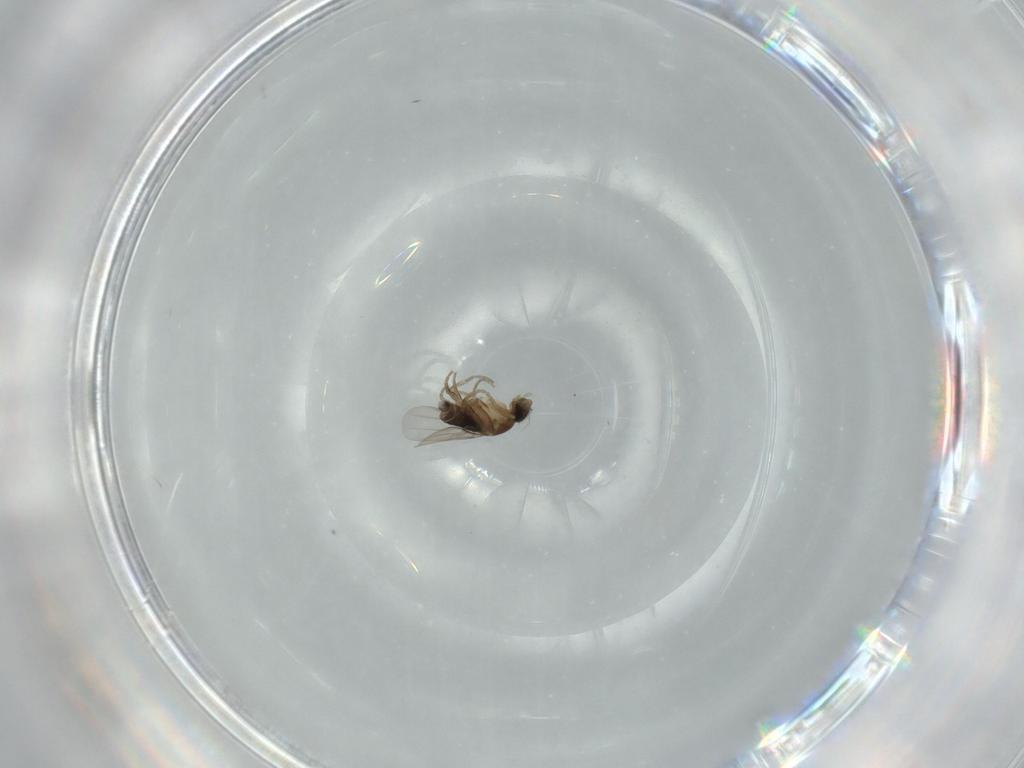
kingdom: Animalia
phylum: Arthropoda
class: Insecta
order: Diptera
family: Phoridae
